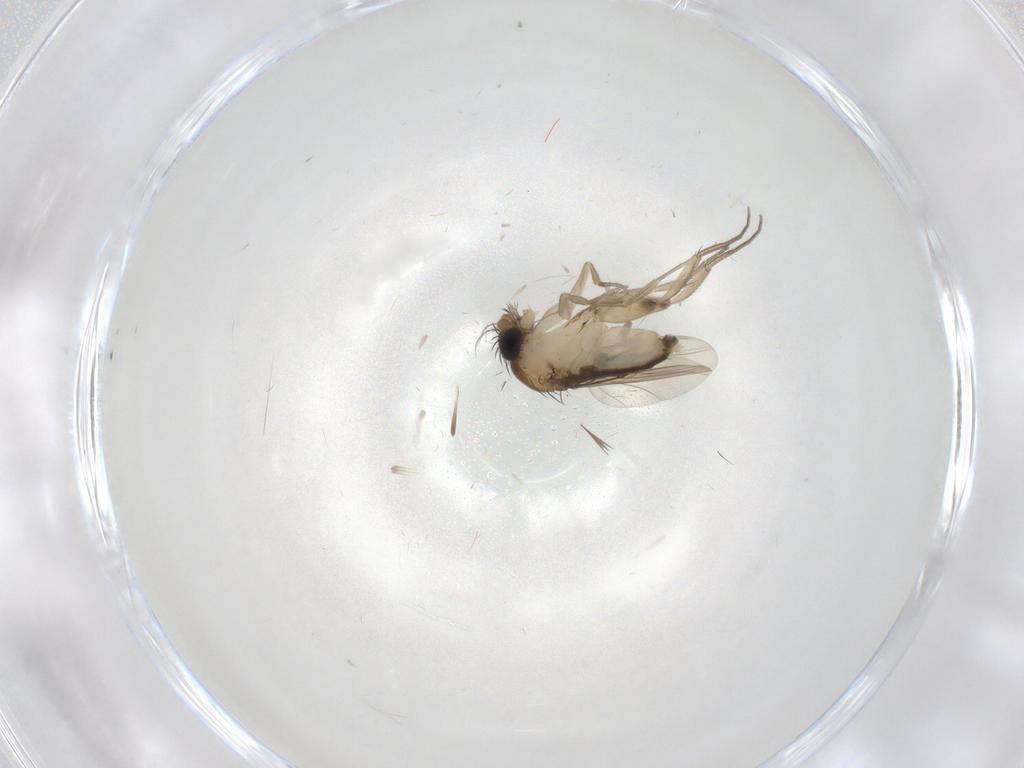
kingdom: Animalia
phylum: Arthropoda
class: Insecta
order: Diptera
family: Phoridae
